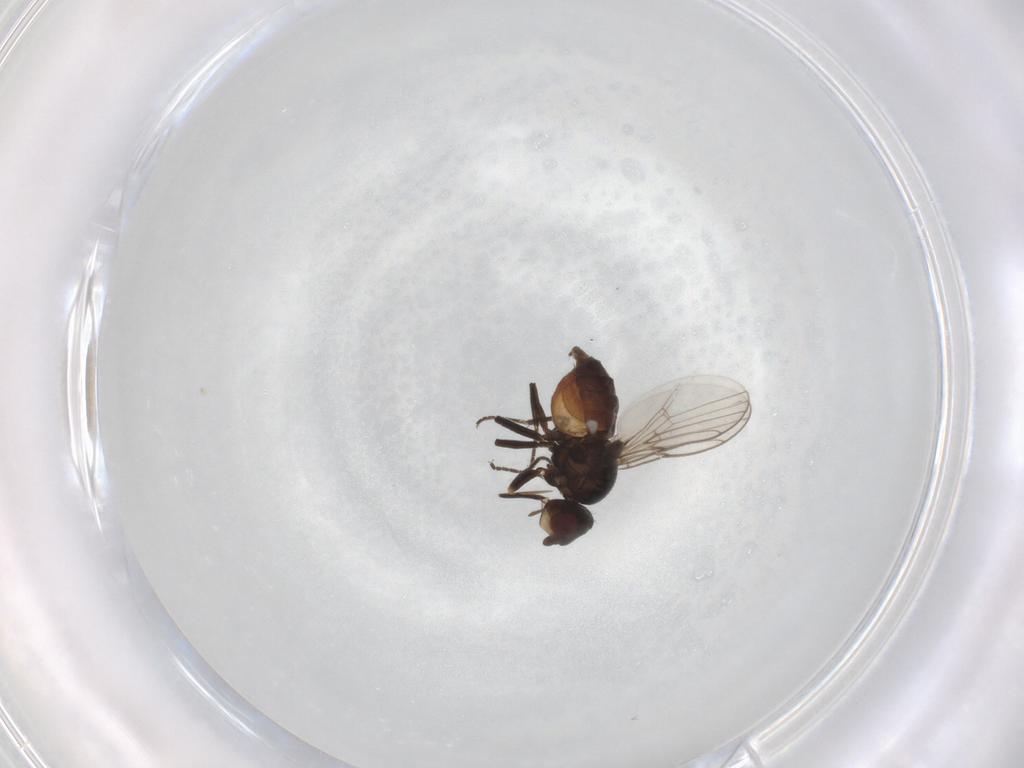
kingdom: Animalia
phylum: Arthropoda
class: Insecta
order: Diptera
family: Chloropidae
